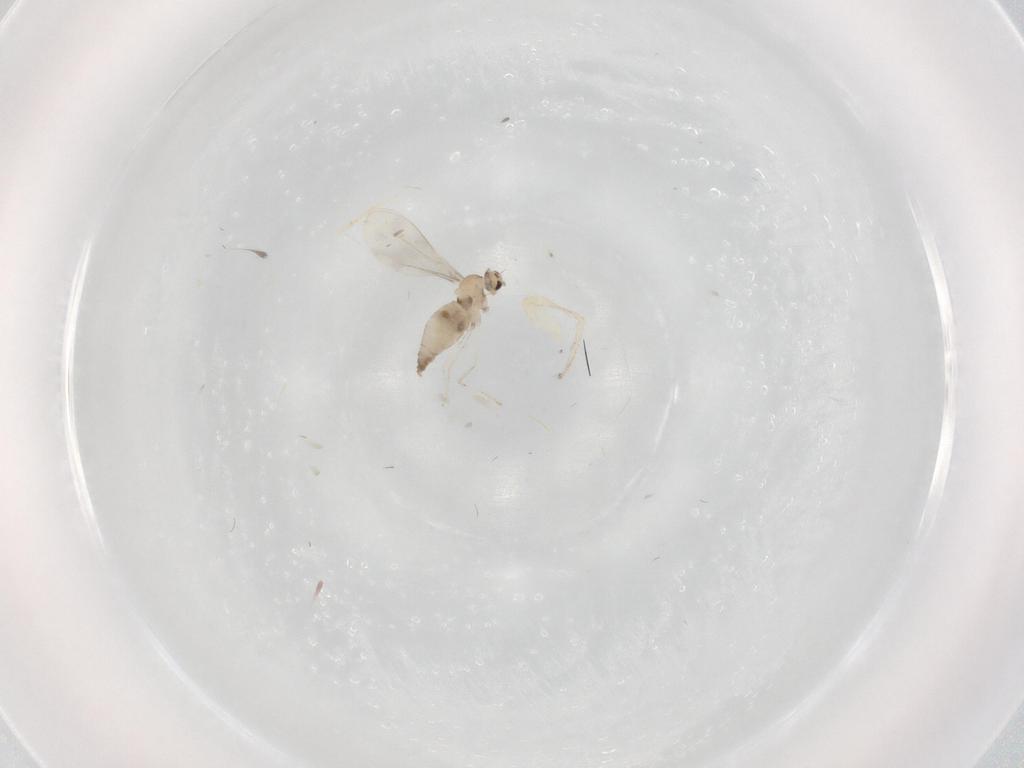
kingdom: Animalia
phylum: Arthropoda
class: Insecta
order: Diptera
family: Cecidomyiidae
